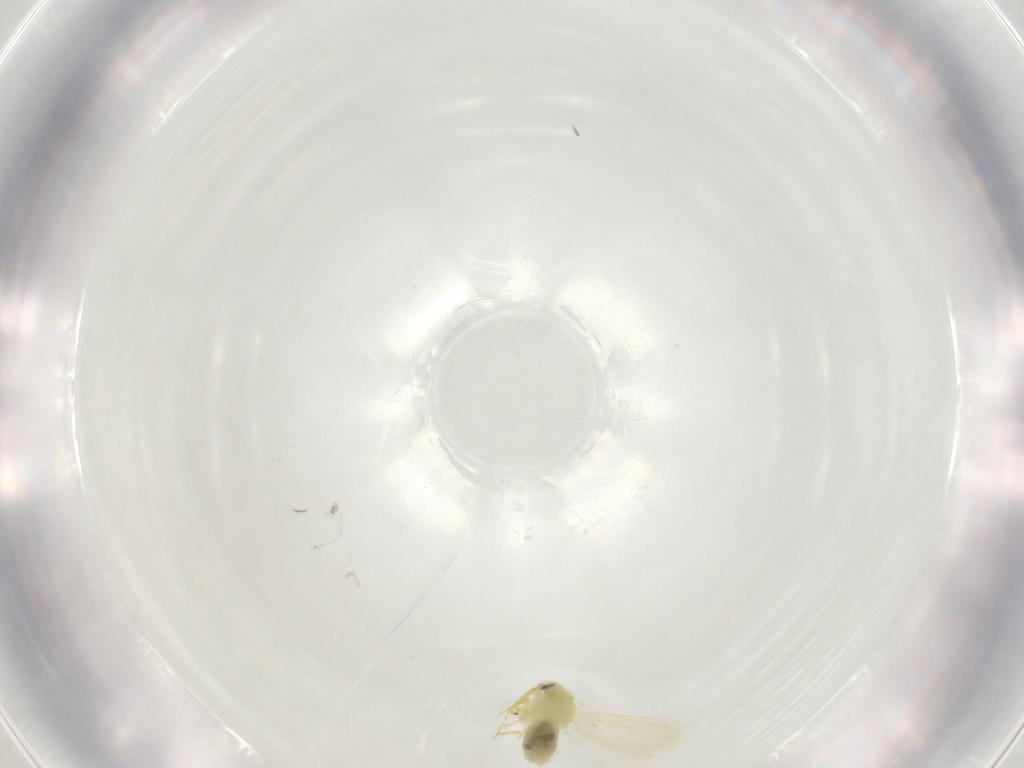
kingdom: Animalia
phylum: Arthropoda
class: Insecta
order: Hemiptera
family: Aleyrodidae
